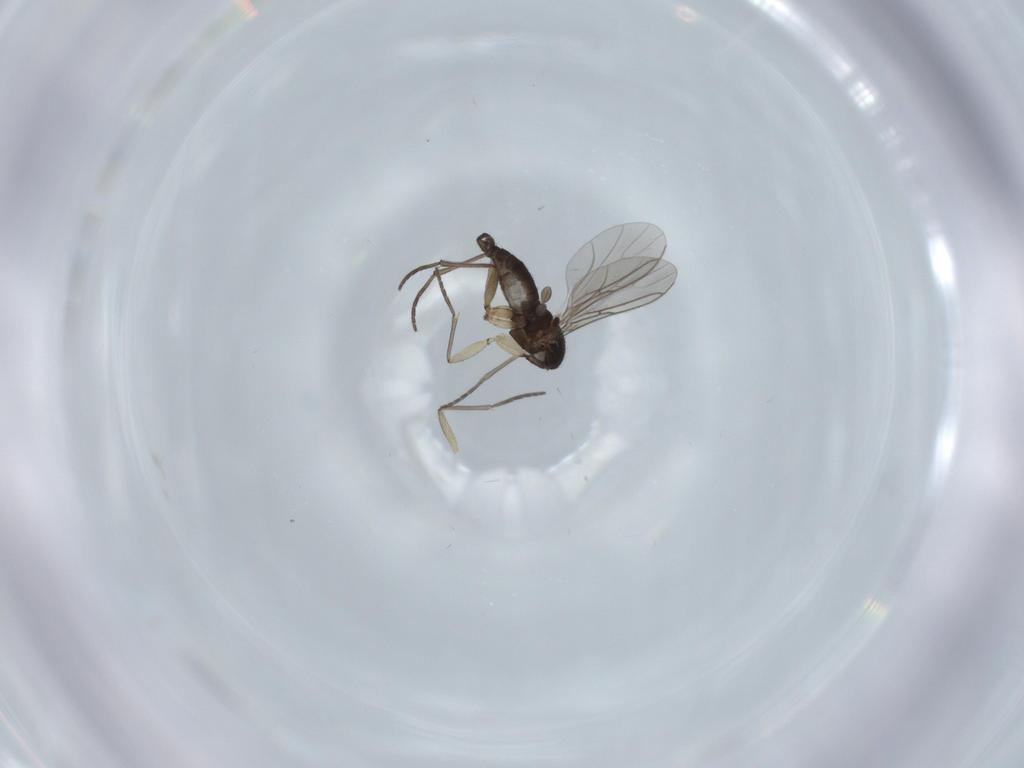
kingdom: Animalia
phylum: Arthropoda
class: Insecta
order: Diptera
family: Sciaridae
